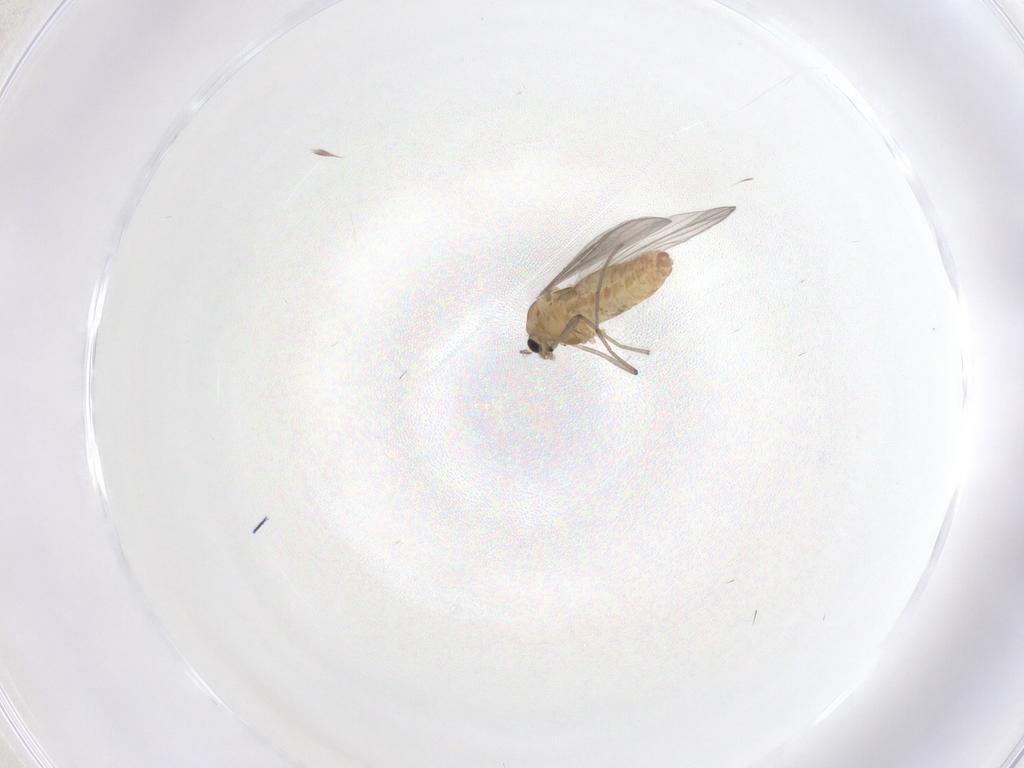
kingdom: Animalia
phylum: Arthropoda
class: Insecta
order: Diptera
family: Chironomidae
